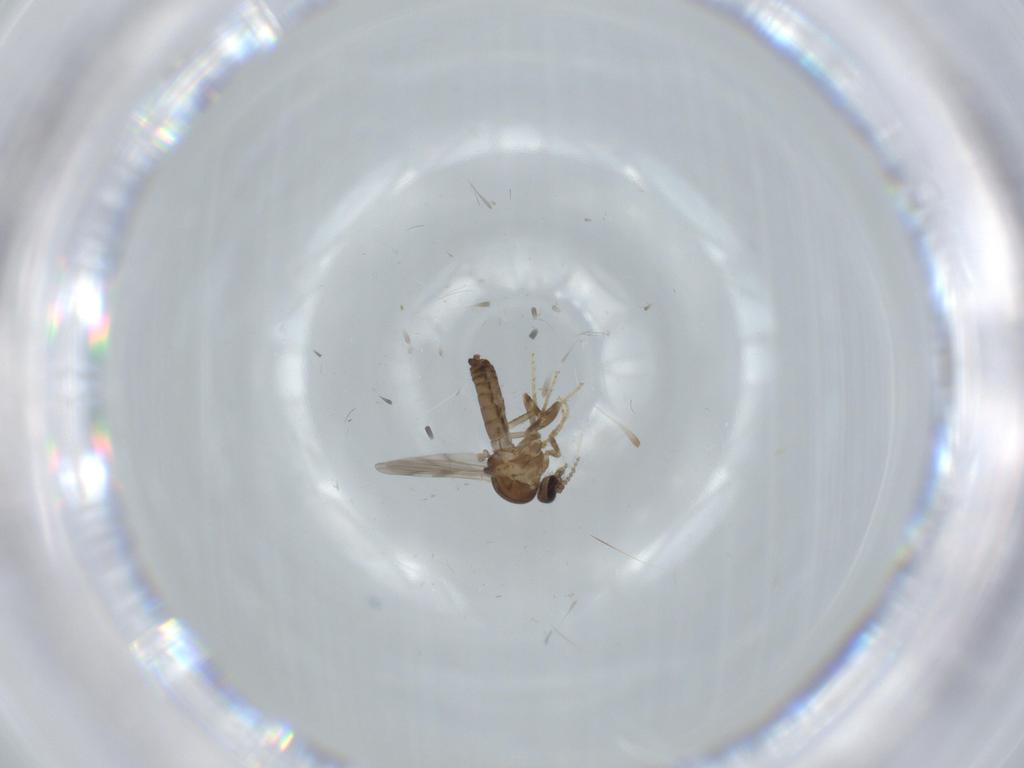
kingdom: Animalia
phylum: Arthropoda
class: Insecta
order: Diptera
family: Ceratopogonidae
